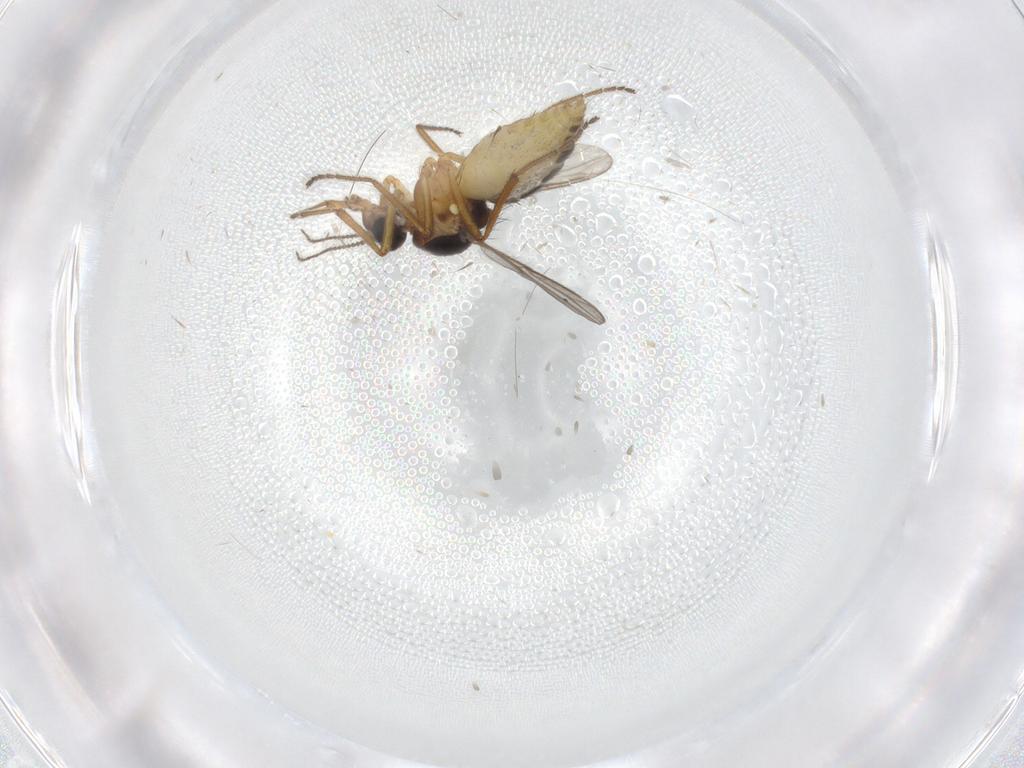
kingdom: Animalia
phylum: Arthropoda
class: Insecta
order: Diptera
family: Ceratopogonidae
